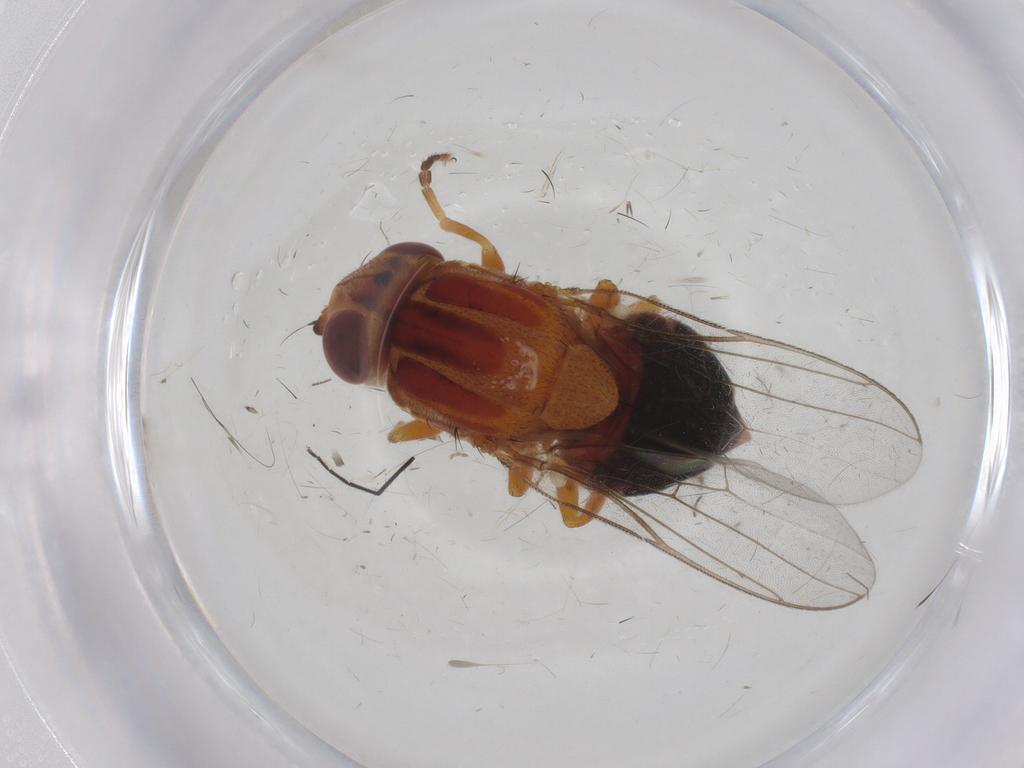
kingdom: Animalia
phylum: Arthropoda
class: Insecta
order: Diptera
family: Chloropidae
